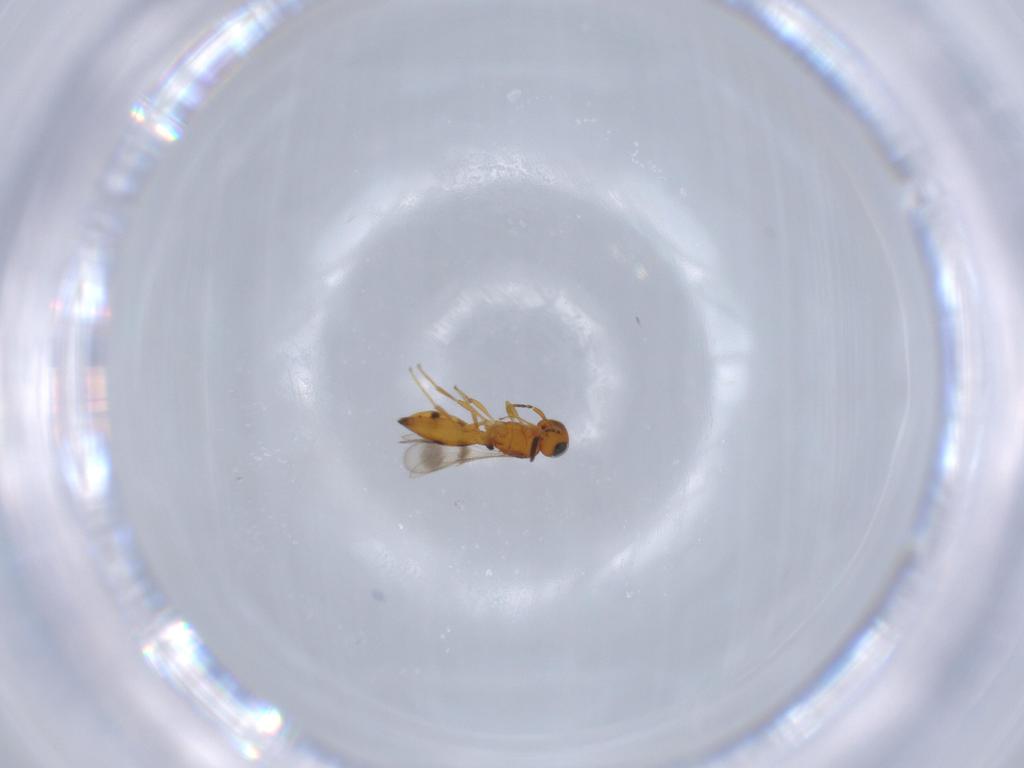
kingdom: Animalia
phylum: Arthropoda
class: Insecta
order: Hymenoptera
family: Scelionidae
